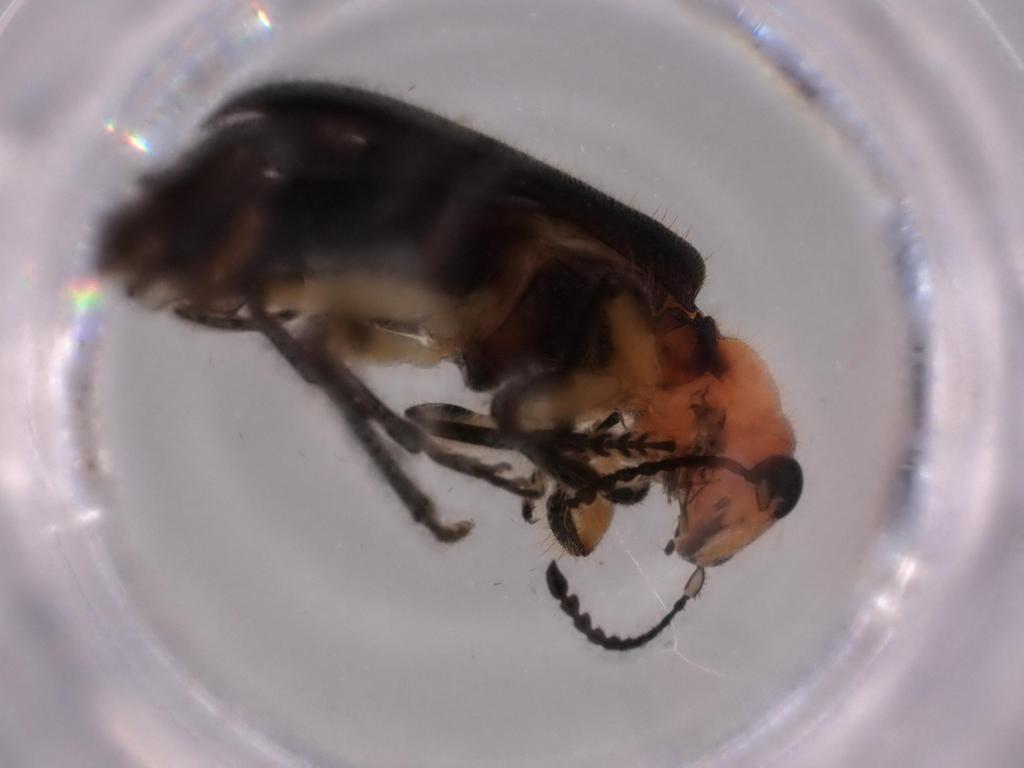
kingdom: Animalia
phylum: Arthropoda
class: Insecta
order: Coleoptera
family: Cleridae
